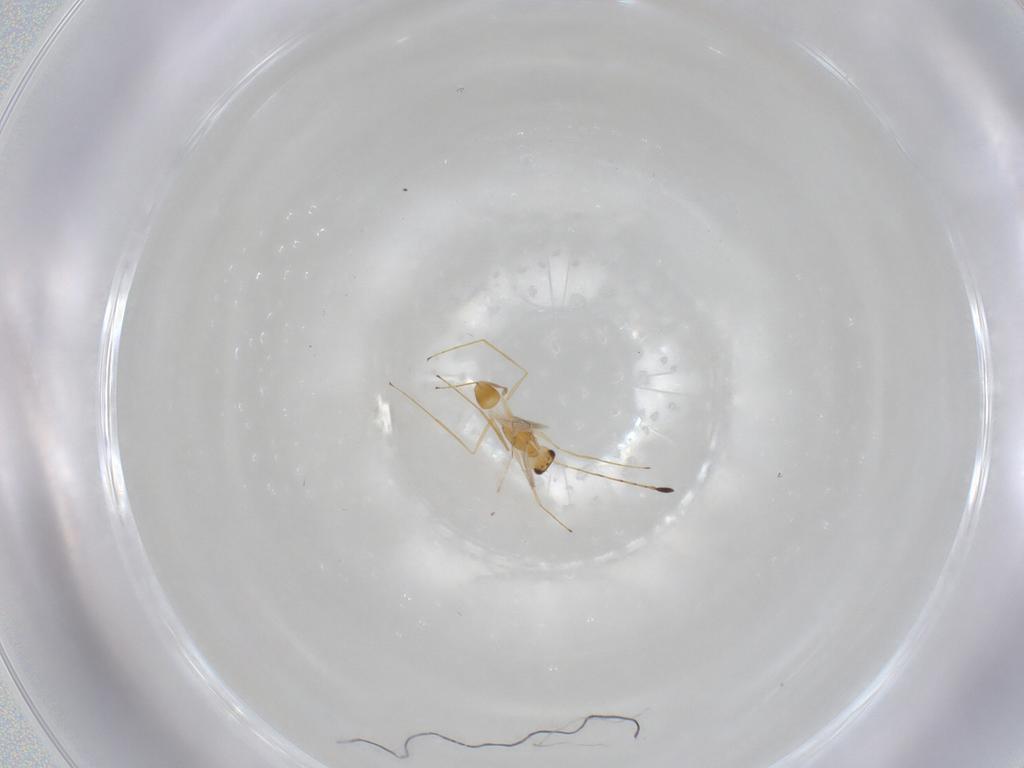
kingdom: Animalia
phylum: Arthropoda
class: Insecta
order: Hymenoptera
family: Mymaridae
